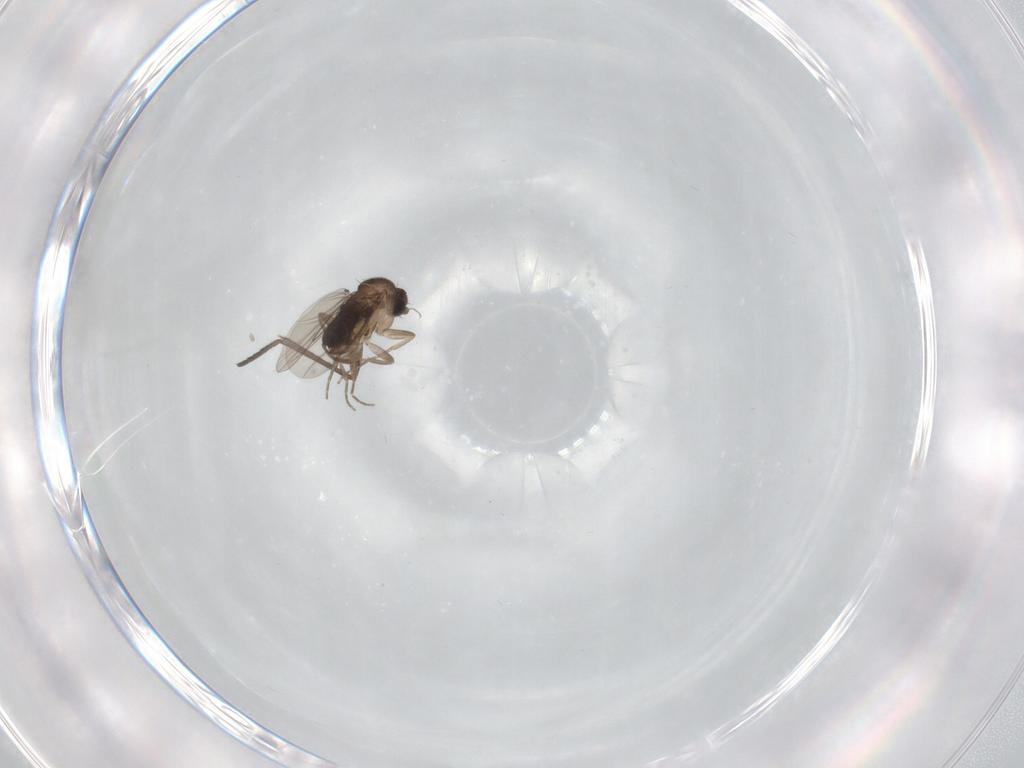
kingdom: Animalia
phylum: Arthropoda
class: Insecta
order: Diptera
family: Phoridae
